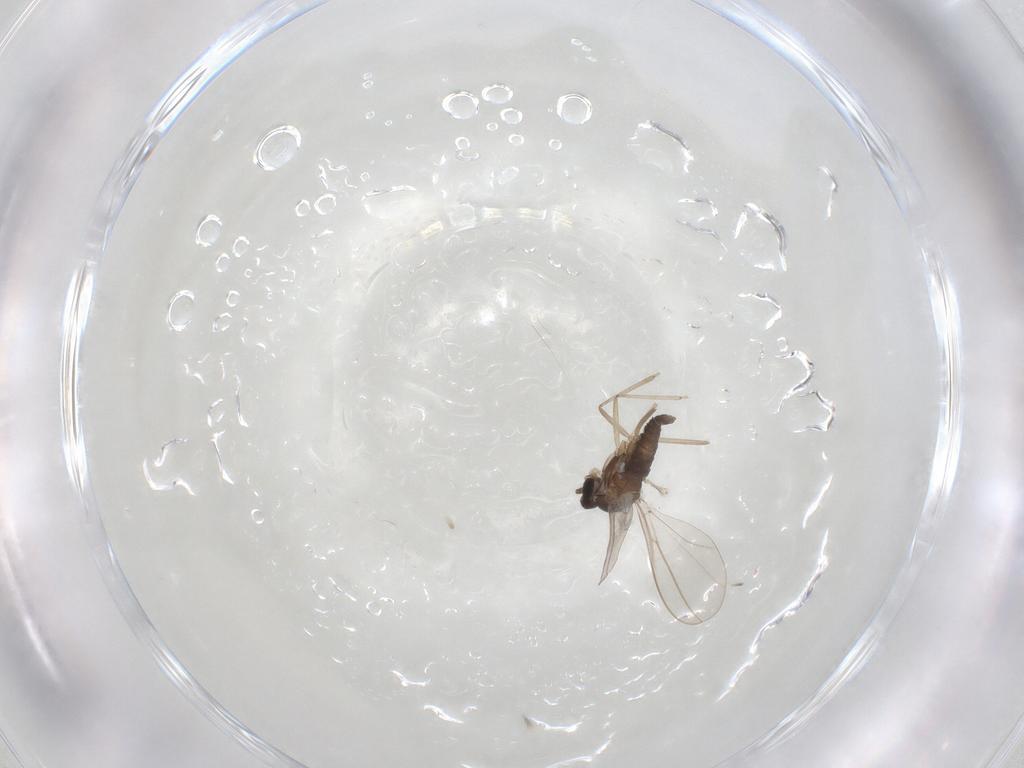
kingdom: Animalia
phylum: Arthropoda
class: Insecta
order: Diptera
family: Cecidomyiidae
